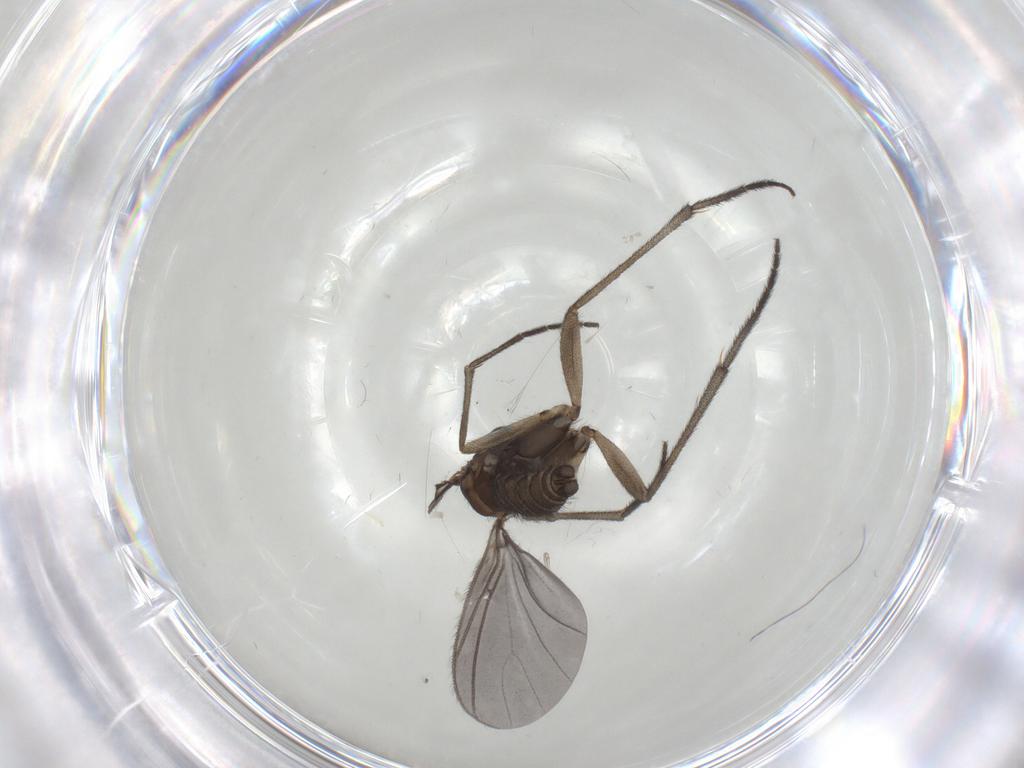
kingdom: Animalia
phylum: Arthropoda
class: Insecta
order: Diptera
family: Sciaridae
